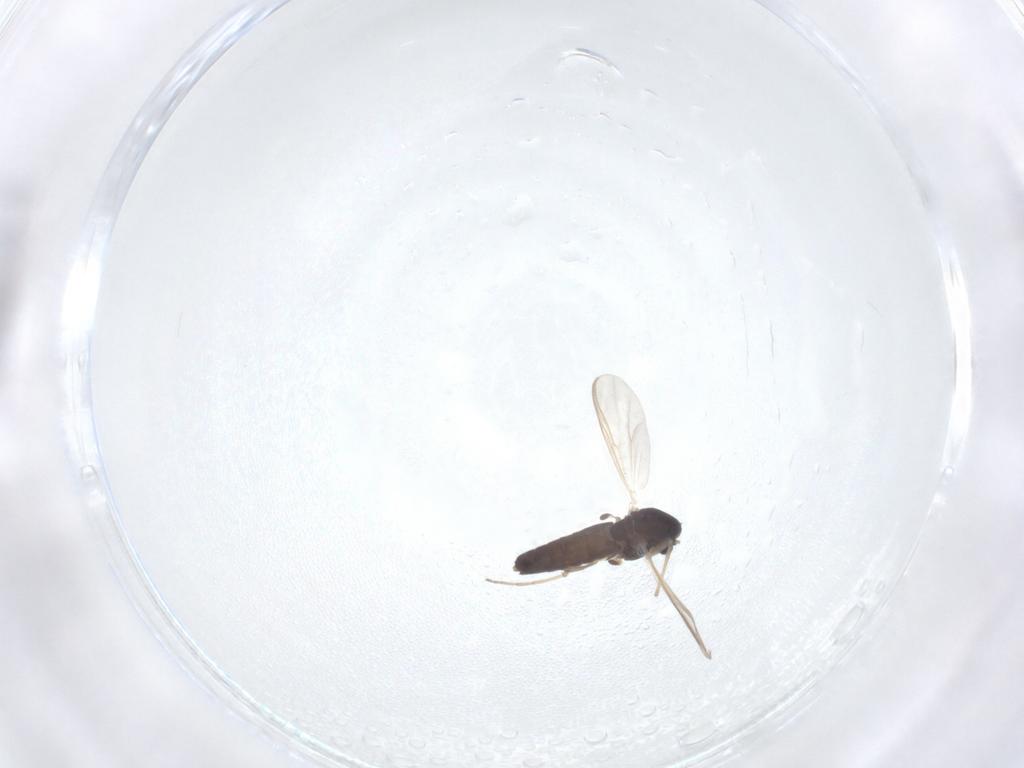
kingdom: Animalia
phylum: Arthropoda
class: Insecta
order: Diptera
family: Chironomidae
